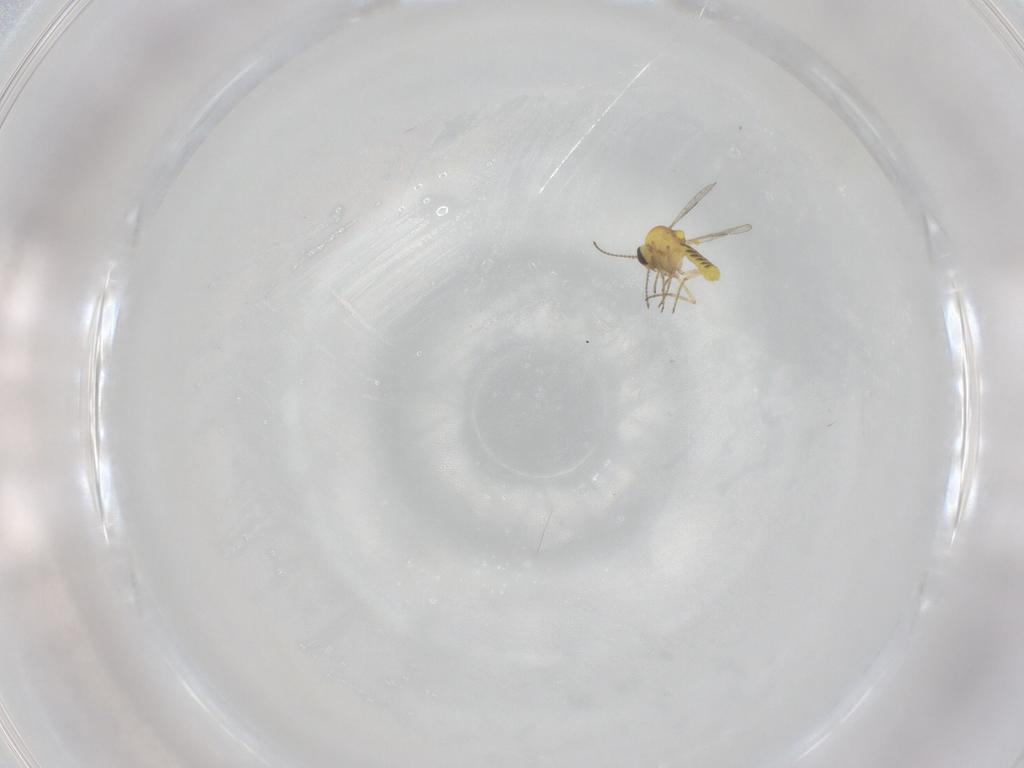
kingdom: Animalia
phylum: Arthropoda
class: Insecta
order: Diptera
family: Ceratopogonidae
